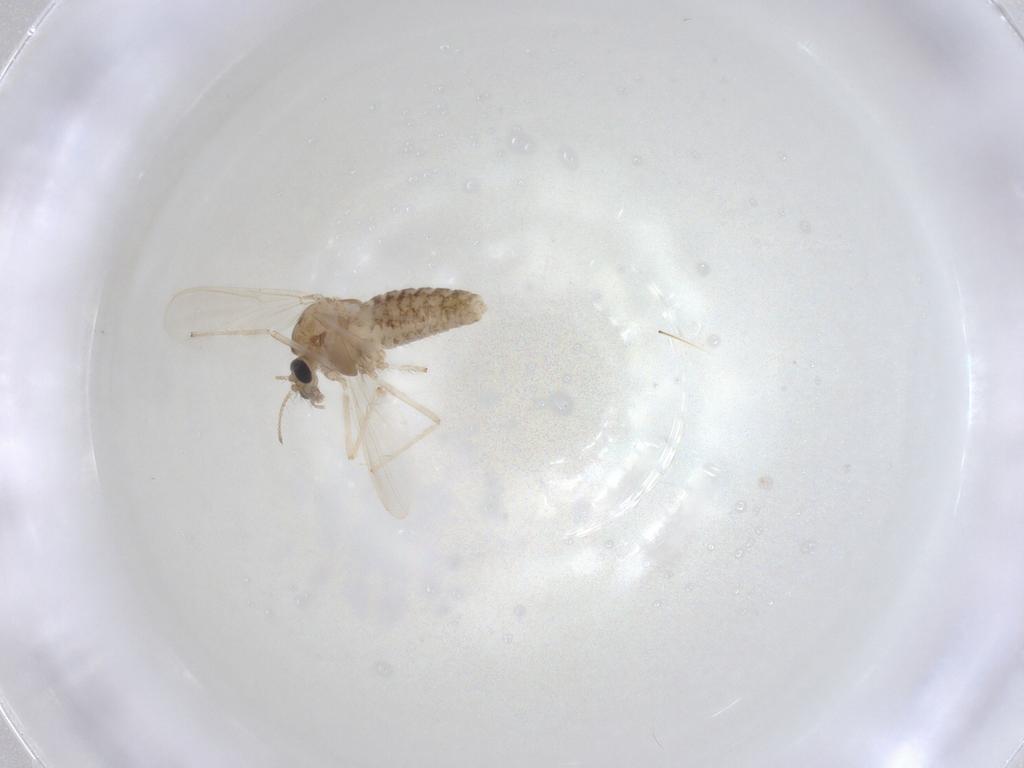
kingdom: Animalia
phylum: Arthropoda
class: Insecta
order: Diptera
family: Chironomidae
